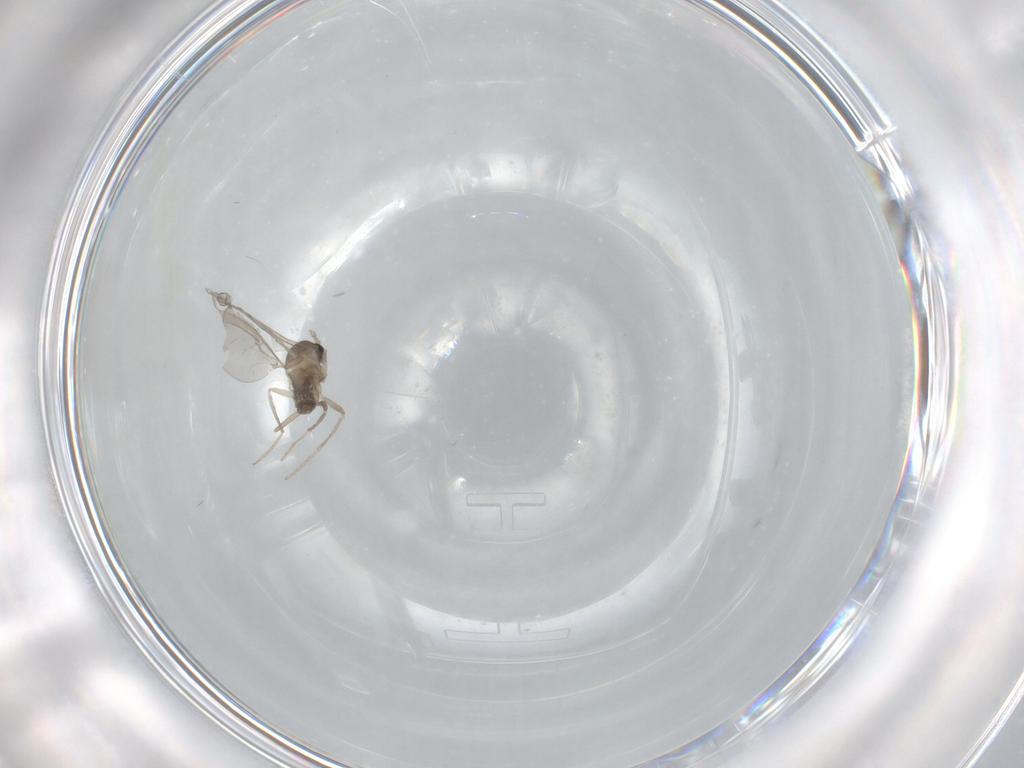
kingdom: Animalia
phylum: Arthropoda
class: Insecta
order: Diptera
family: Cecidomyiidae
